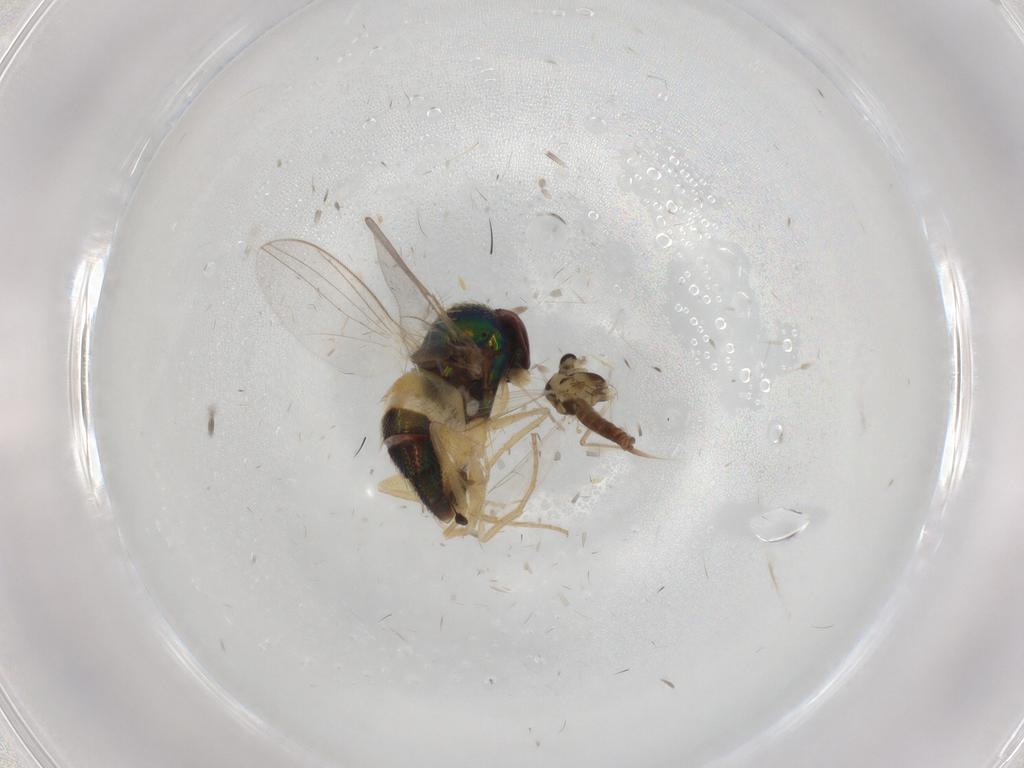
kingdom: Animalia
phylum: Arthropoda
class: Insecta
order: Diptera
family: Dolichopodidae
